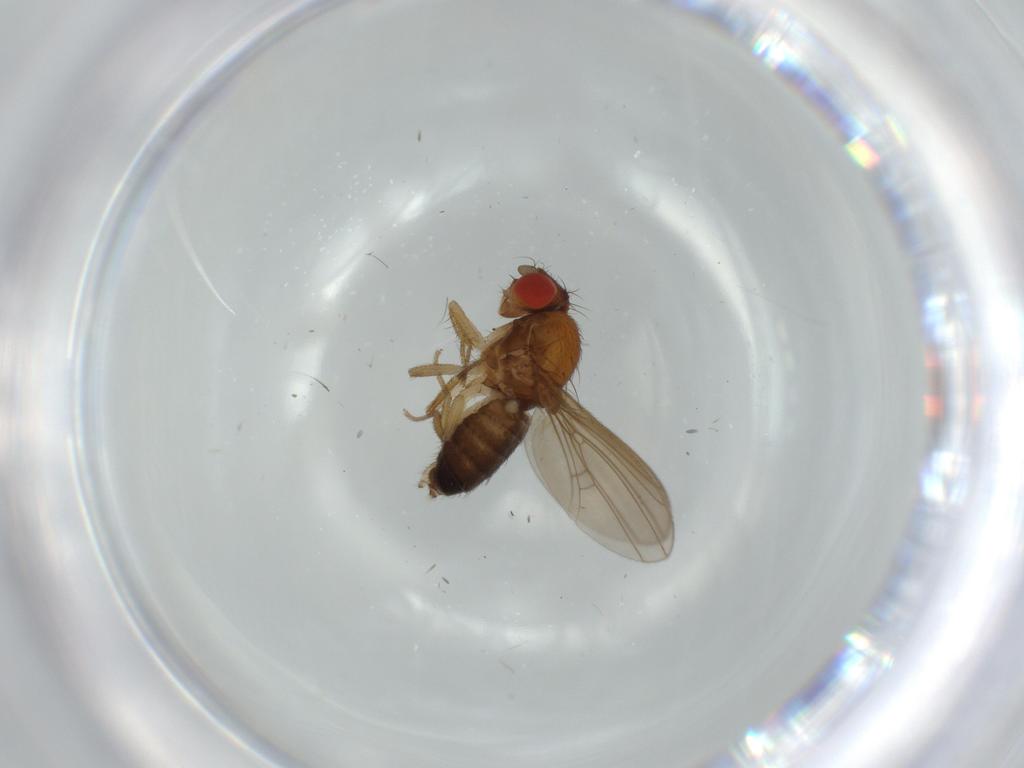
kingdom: Animalia
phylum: Arthropoda
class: Insecta
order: Diptera
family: Drosophilidae
